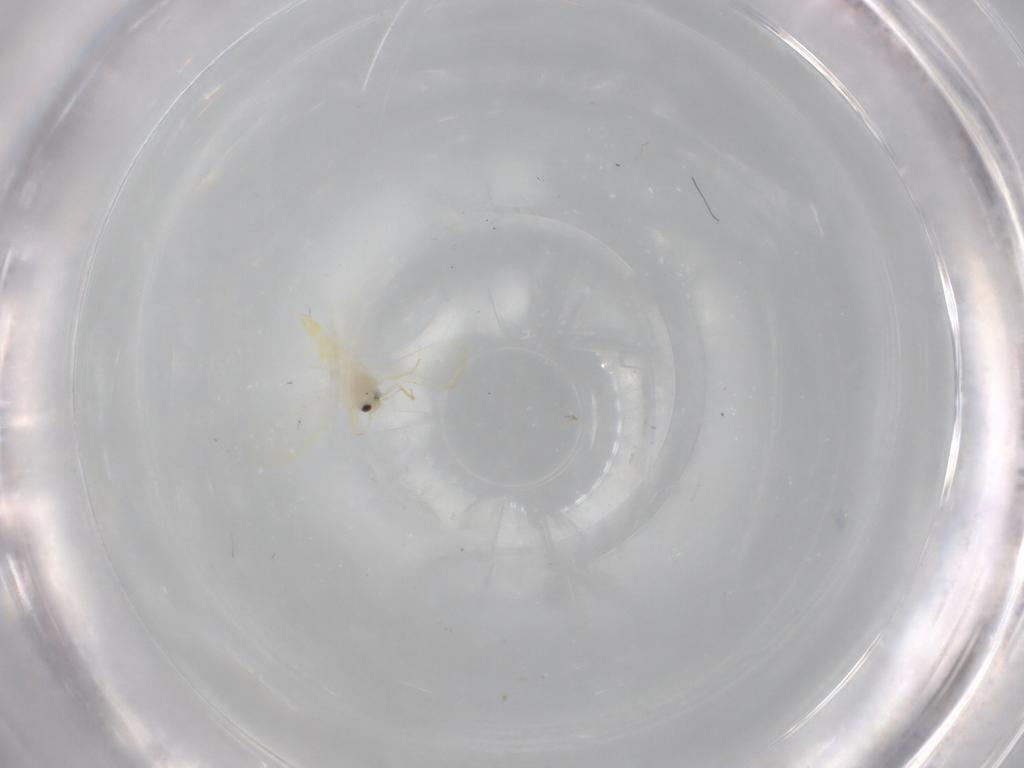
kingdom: Animalia
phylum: Arthropoda
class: Insecta
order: Hemiptera
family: Cicadellidae
